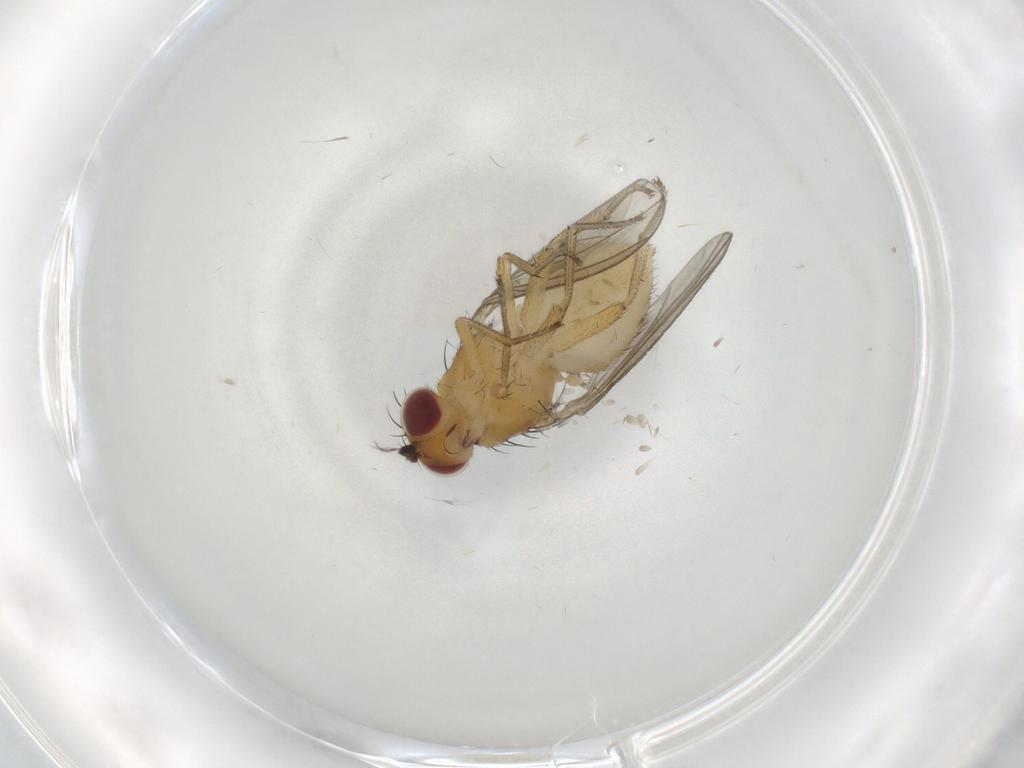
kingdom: Animalia
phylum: Arthropoda
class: Insecta
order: Diptera
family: Lauxaniidae
